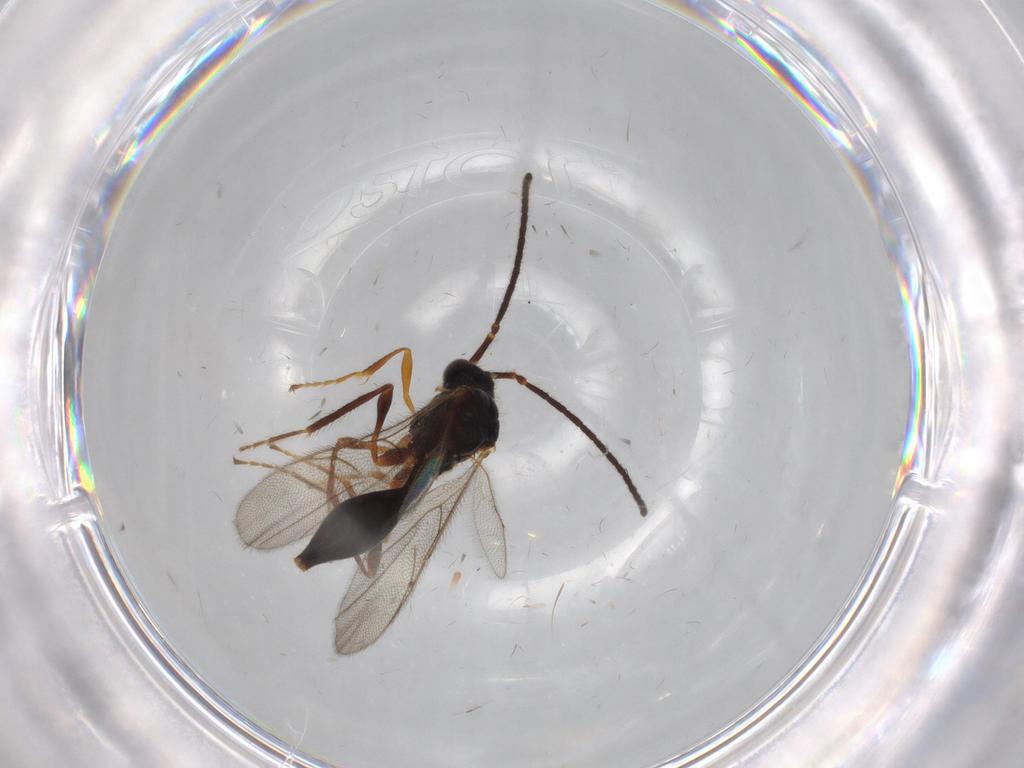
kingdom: Animalia
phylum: Arthropoda
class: Insecta
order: Hymenoptera
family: Mymaridae
